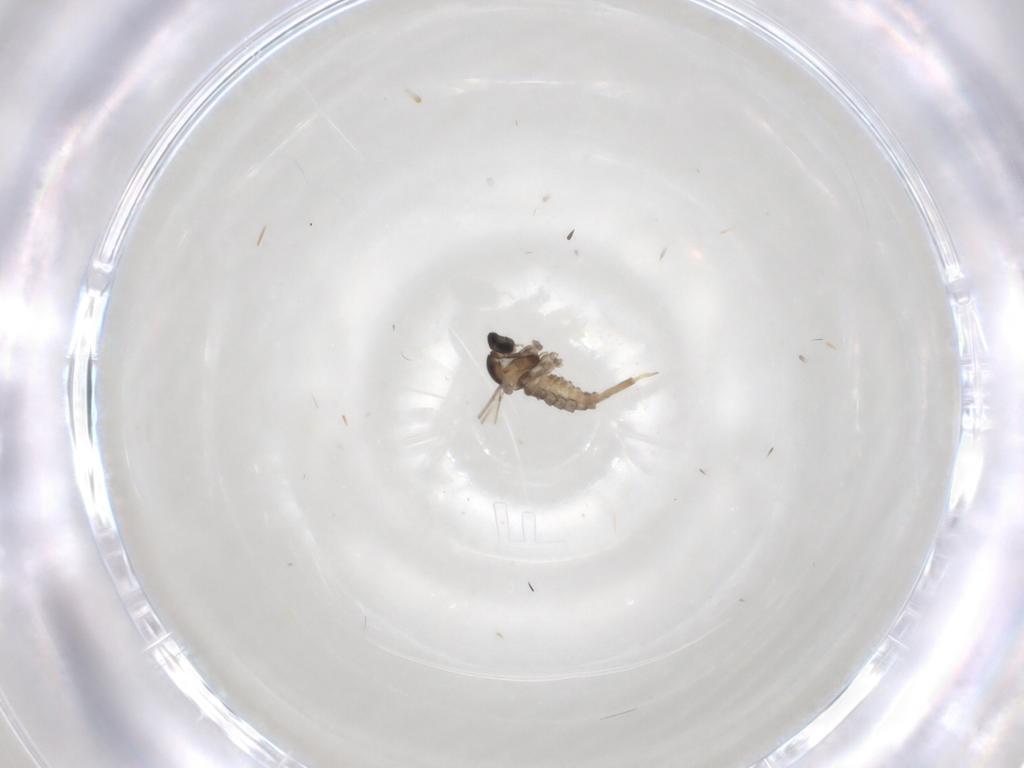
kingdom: Animalia
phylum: Arthropoda
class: Insecta
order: Diptera
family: Cecidomyiidae
